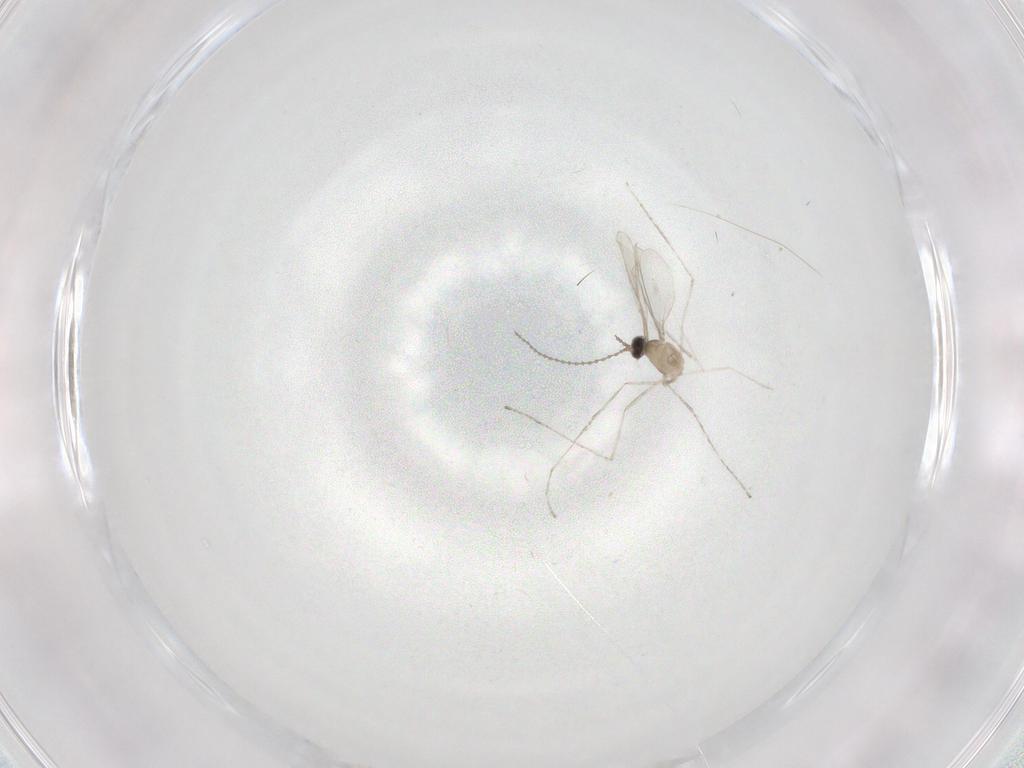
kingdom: Animalia
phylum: Arthropoda
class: Insecta
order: Diptera
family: Cecidomyiidae
